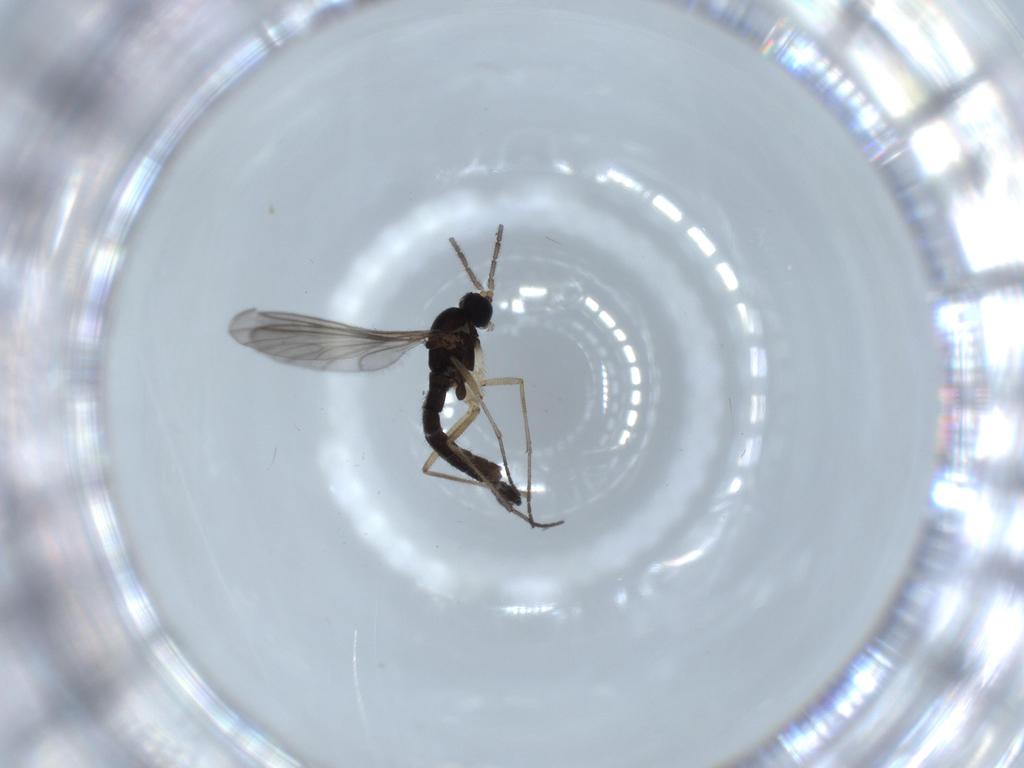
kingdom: Animalia
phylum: Arthropoda
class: Insecta
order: Diptera
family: Sciaridae
